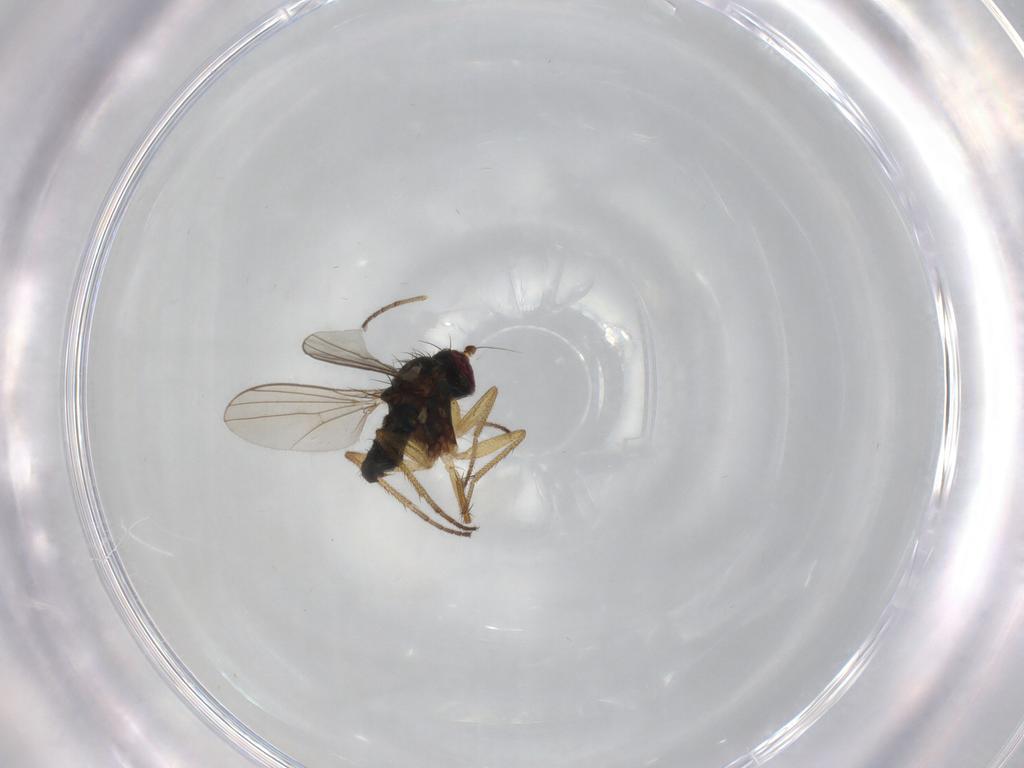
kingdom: Animalia
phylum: Arthropoda
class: Insecta
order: Diptera
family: Dolichopodidae
